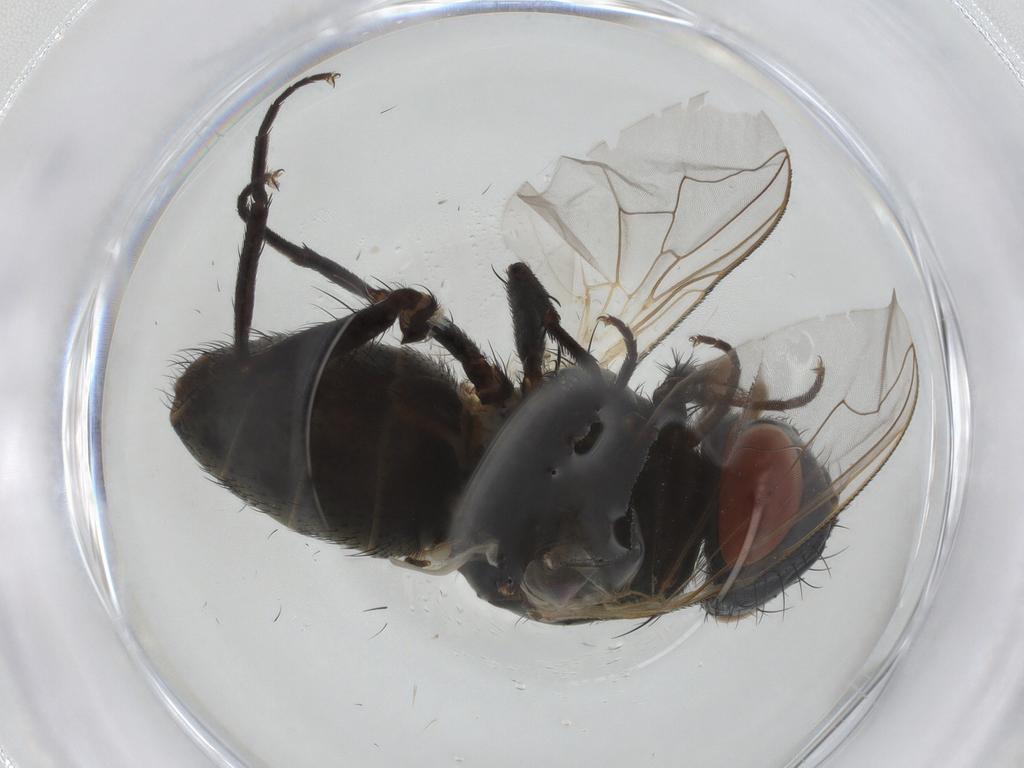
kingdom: Animalia
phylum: Arthropoda
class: Insecta
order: Diptera
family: Sarcophagidae
